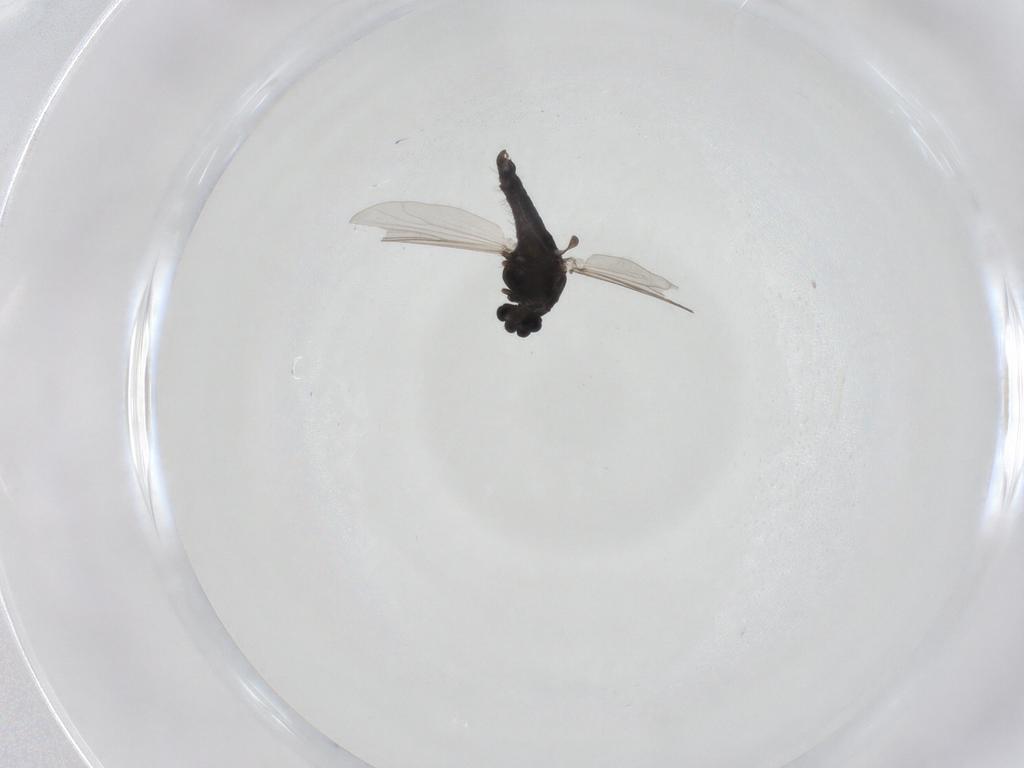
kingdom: Animalia
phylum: Arthropoda
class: Insecta
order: Diptera
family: Chironomidae
